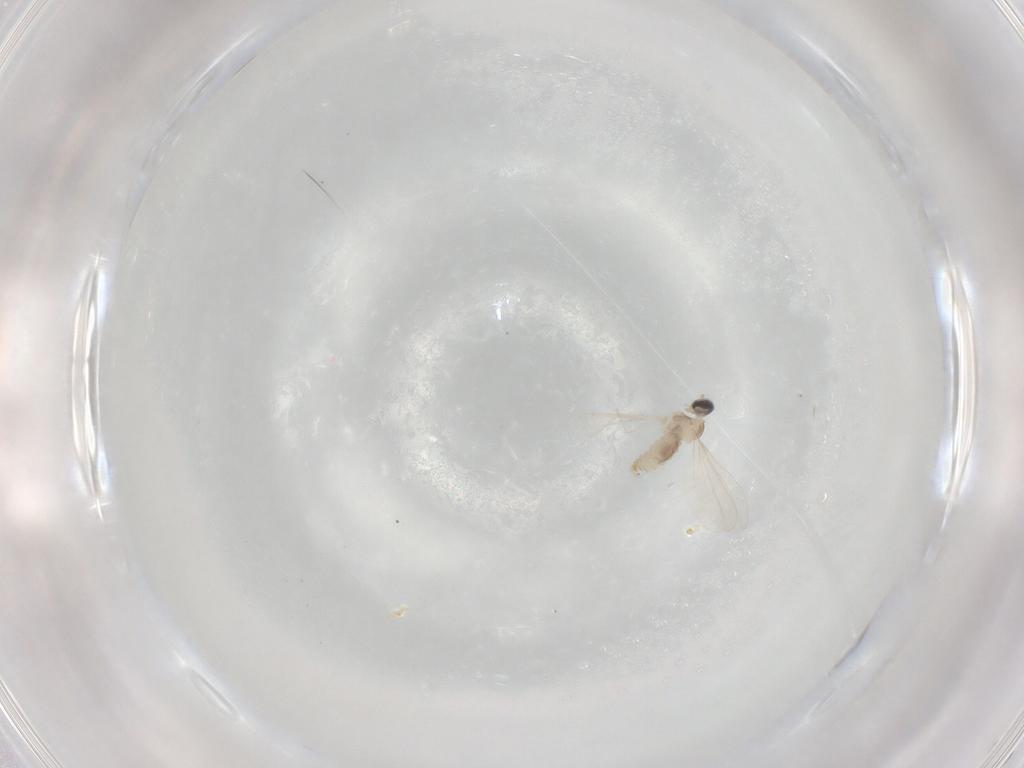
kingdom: Animalia
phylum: Arthropoda
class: Insecta
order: Diptera
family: Cecidomyiidae
